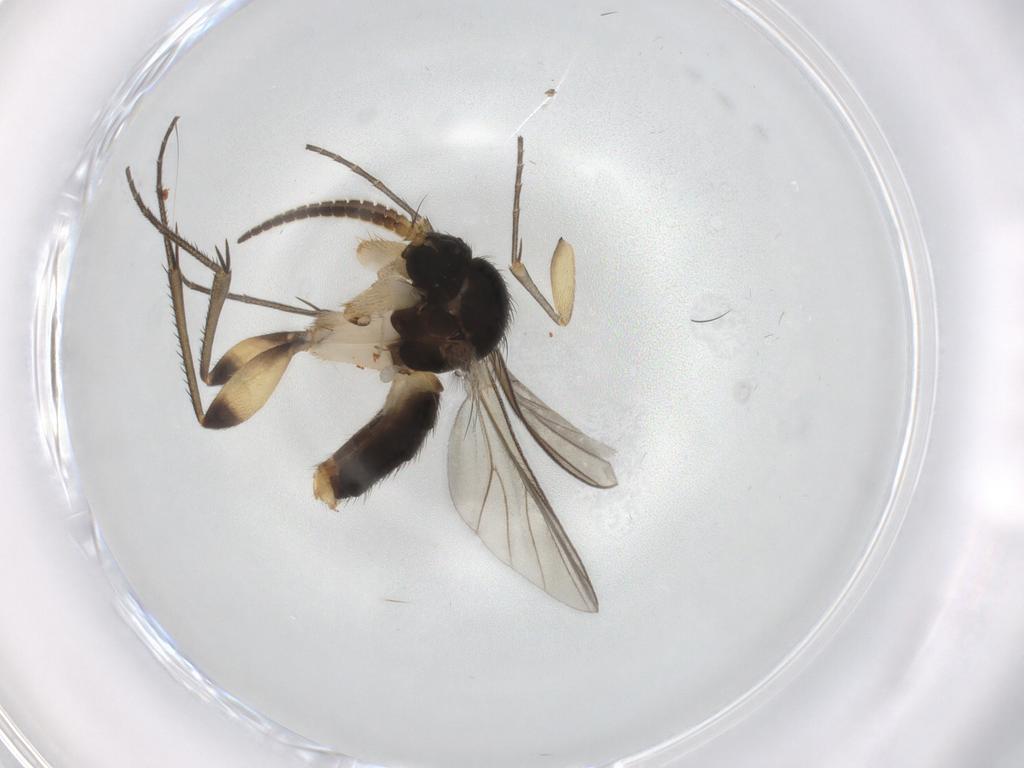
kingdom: Animalia
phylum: Arthropoda
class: Insecta
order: Diptera
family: Mycetophilidae
